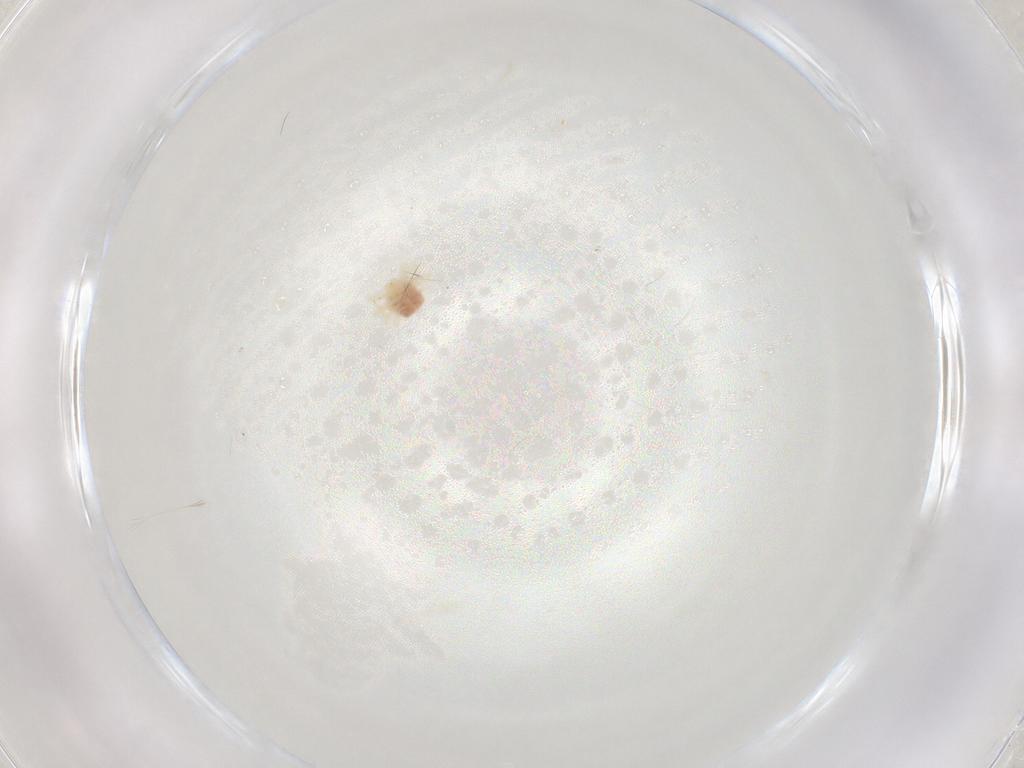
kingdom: Animalia
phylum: Arthropoda
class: Arachnida
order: Trombidiformes
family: Anystidae
